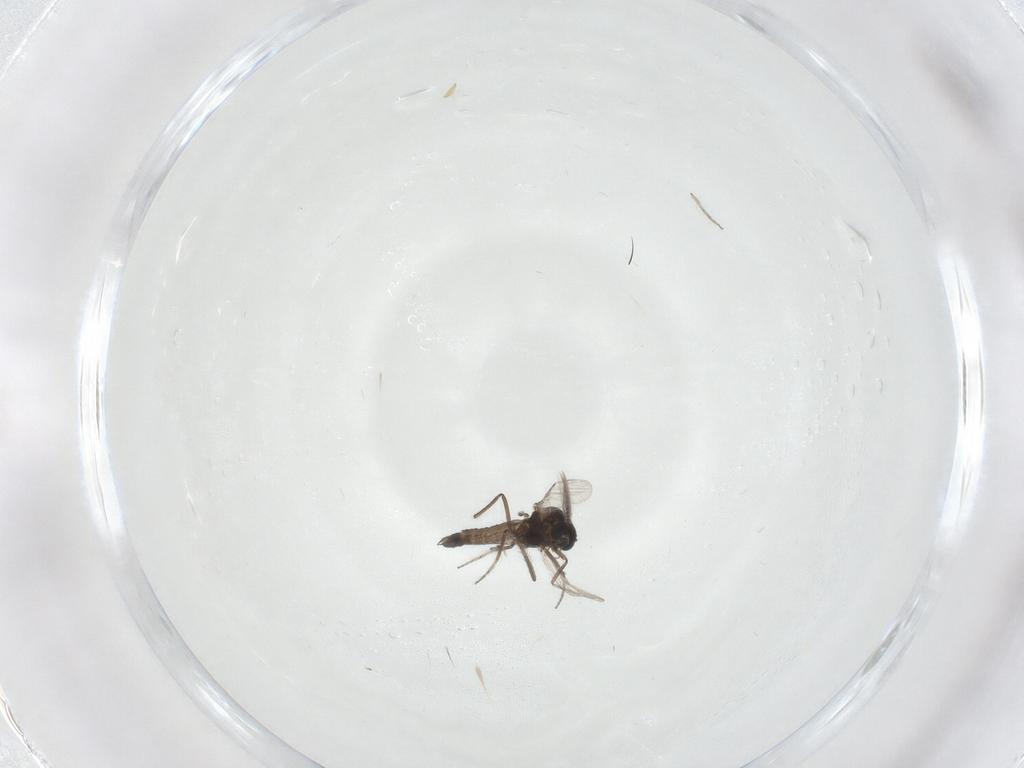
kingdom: Animalia
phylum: Arthropoda
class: Insecta
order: Diptera
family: Ceratopogonidae
